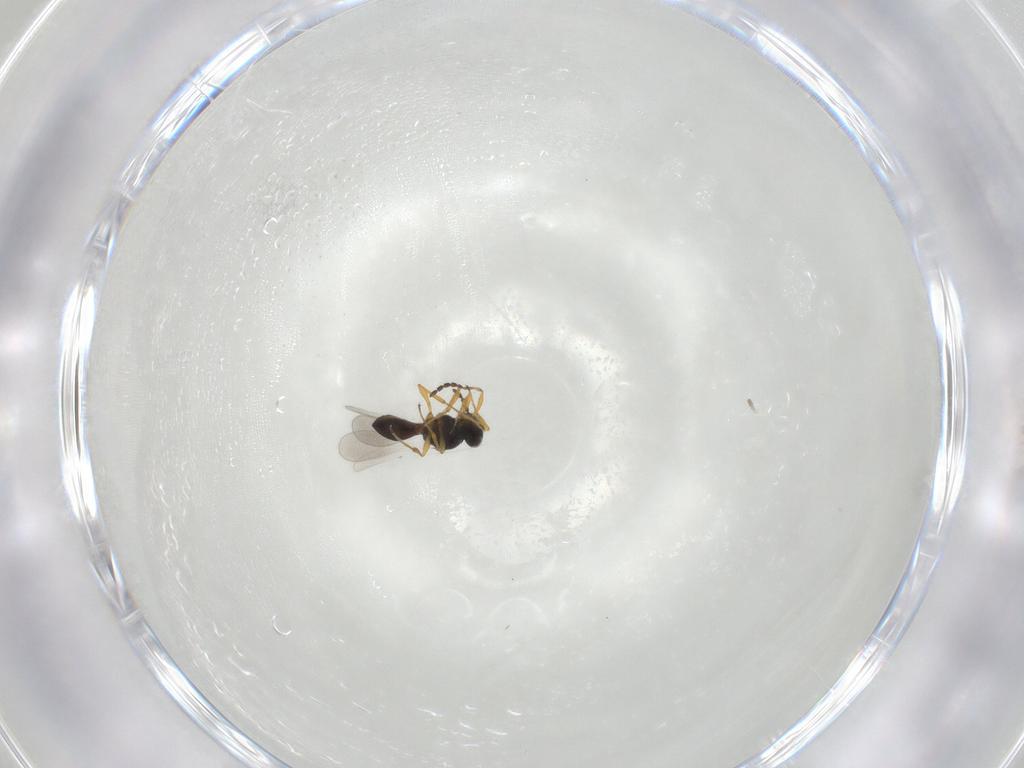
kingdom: Animalia
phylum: Arthropoda
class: Insecta
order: Hymenoptera
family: Platygastridae
